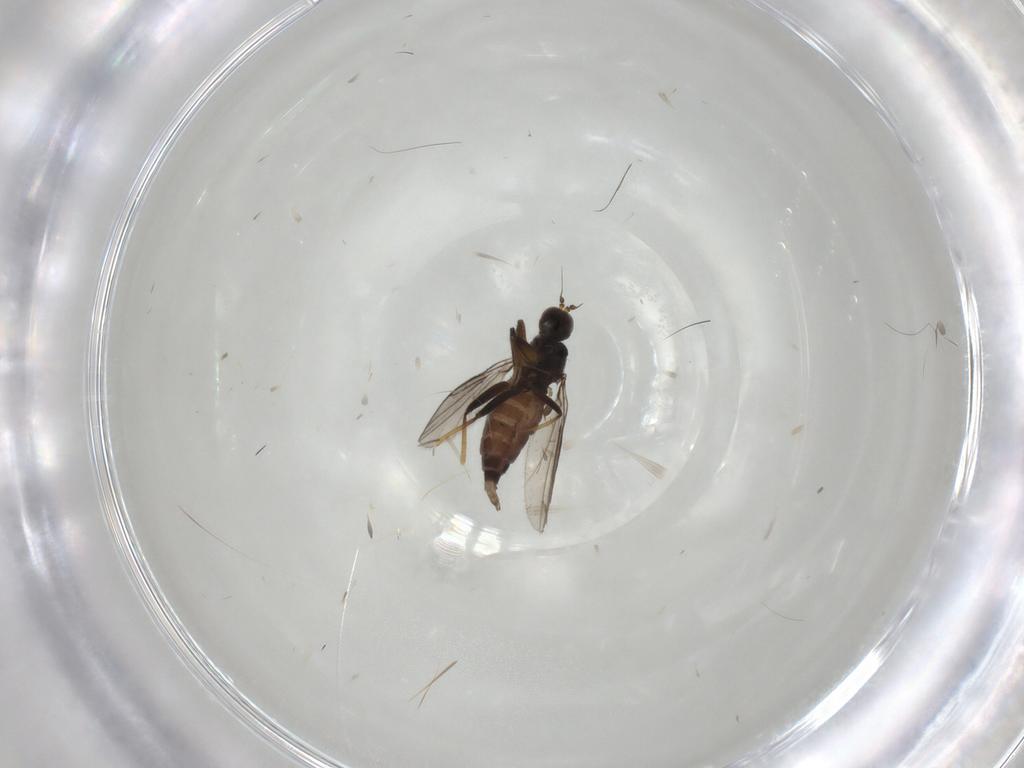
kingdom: Animalia
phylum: Arthropoda
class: Insecta
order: Diptera
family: Hybotidae
